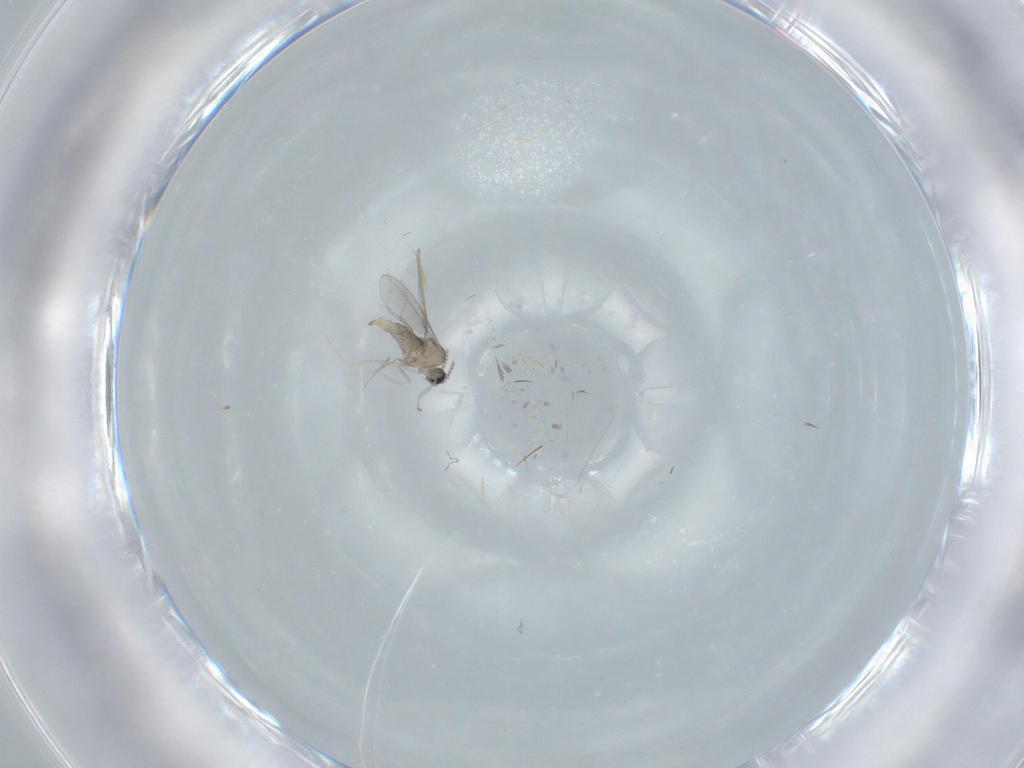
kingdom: Animalia
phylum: Arthropoda
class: Insecta
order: Diptera
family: Cecidomyiidae
